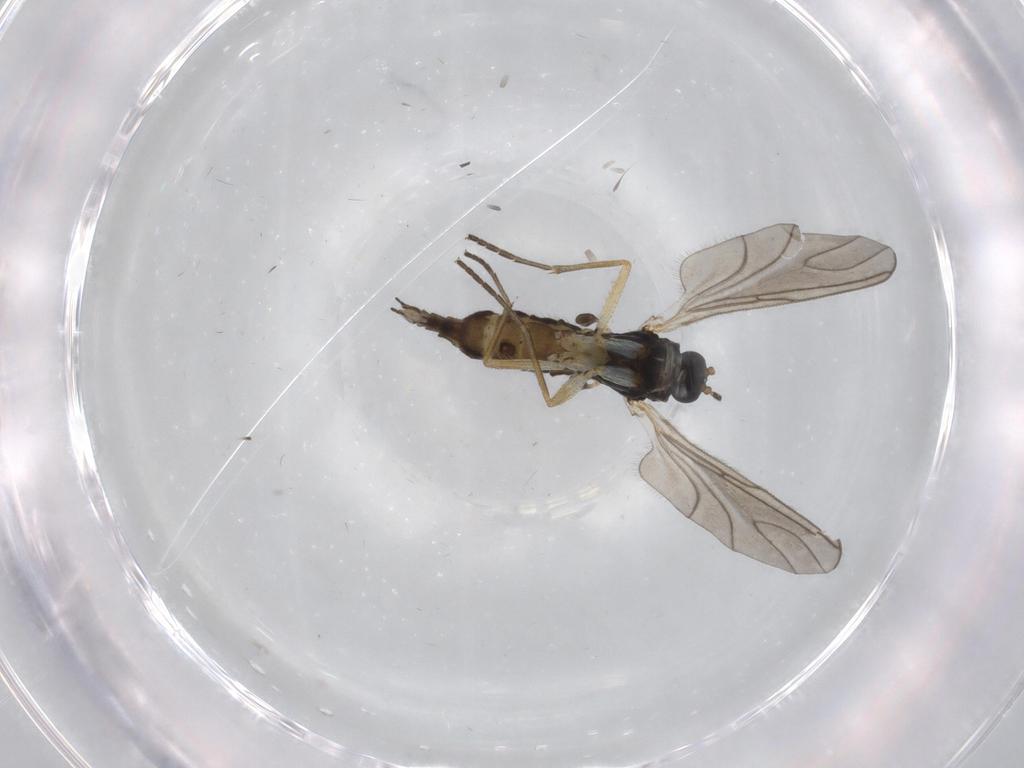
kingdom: Animalia
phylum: Arthropoda
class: Insecta
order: Diptera
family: Sciaridae
